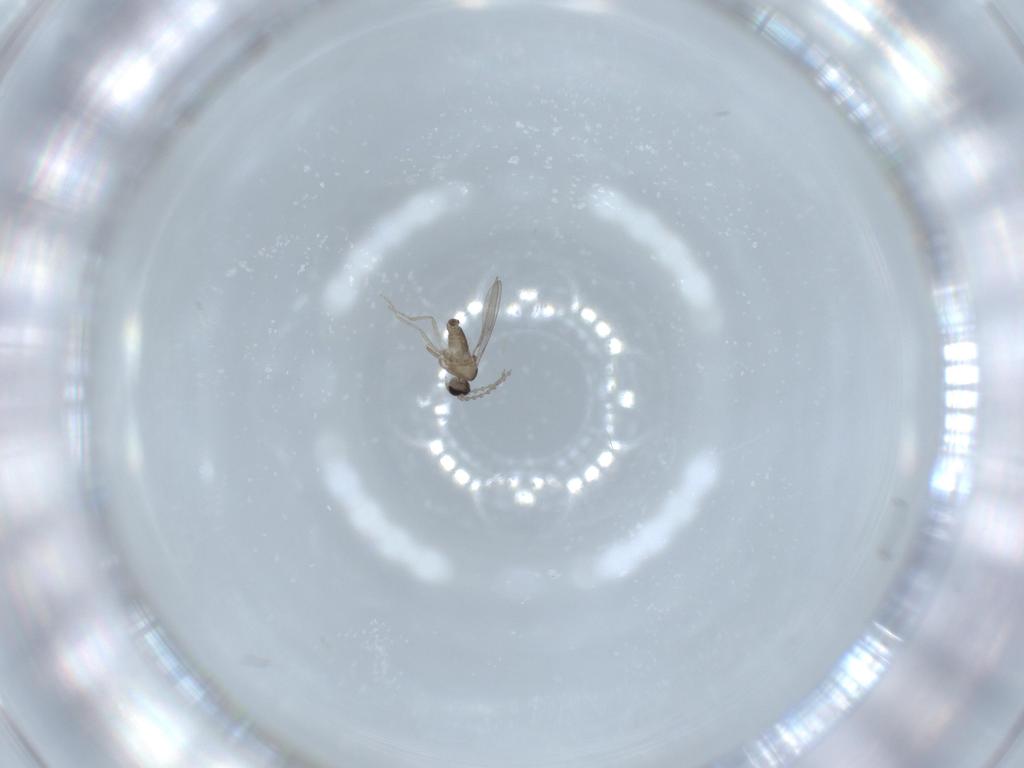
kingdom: Animalia
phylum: Arthropoda
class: Insecta
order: Diptera
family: Cecidomyiidae
